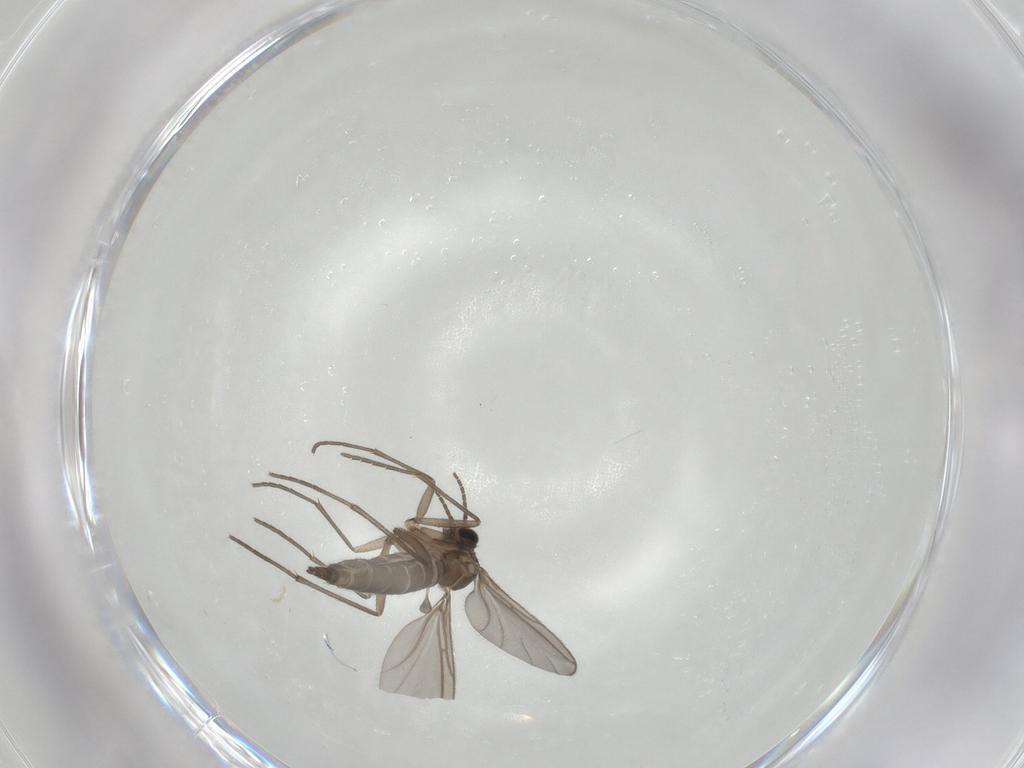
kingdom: Animalia
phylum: Arthropoda
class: Insecta
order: Diptera
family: Sciaridae
